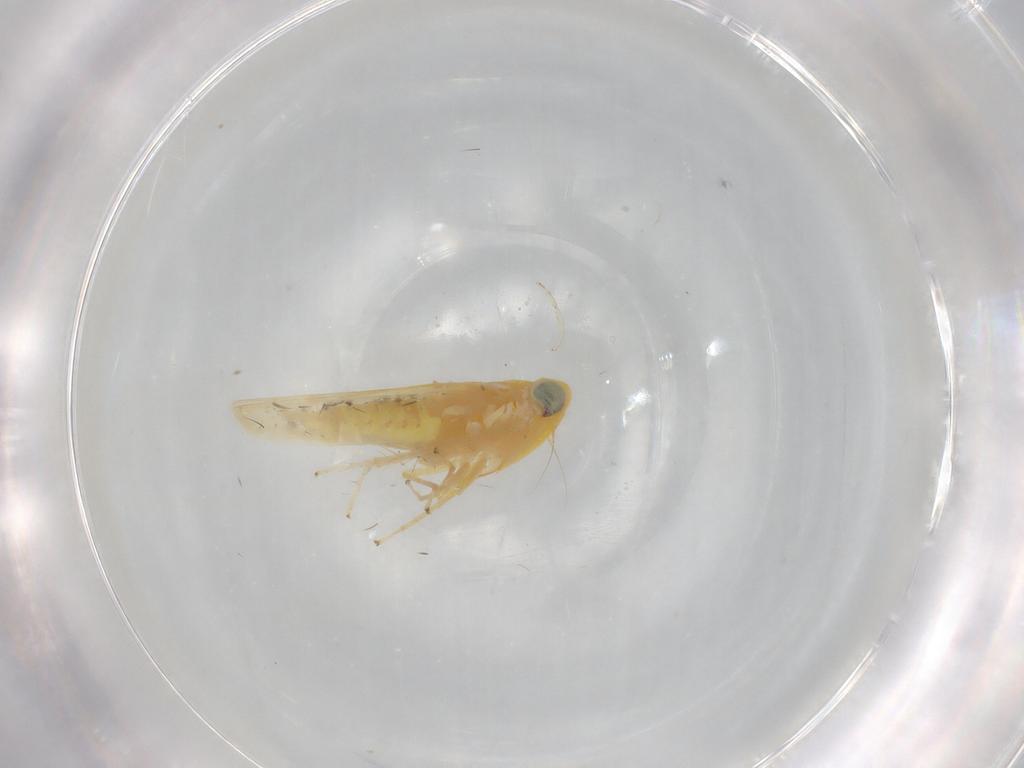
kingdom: Animalia
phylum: Arthropoda
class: Insecta
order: Hemiptera
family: Cicadellidae
